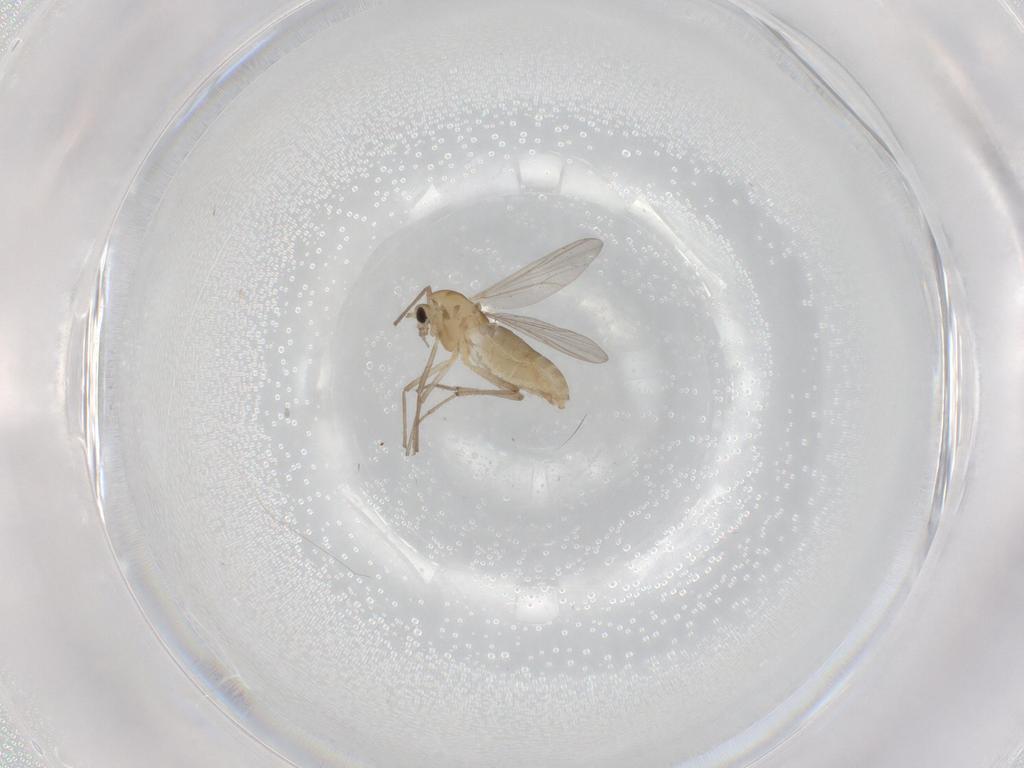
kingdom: Animalia
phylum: Arthropoda
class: Insecta
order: Diptera
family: Chironomidae
